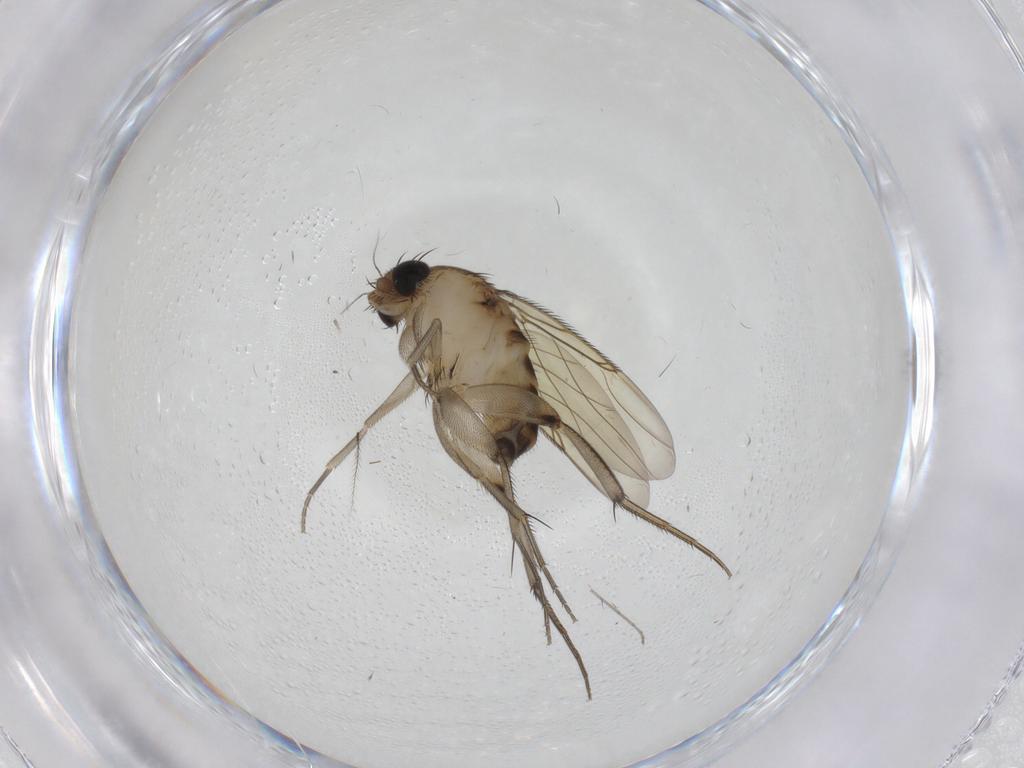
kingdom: Animalia
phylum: Arthropoda
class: Insecta
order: Diptera
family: Phoridae
